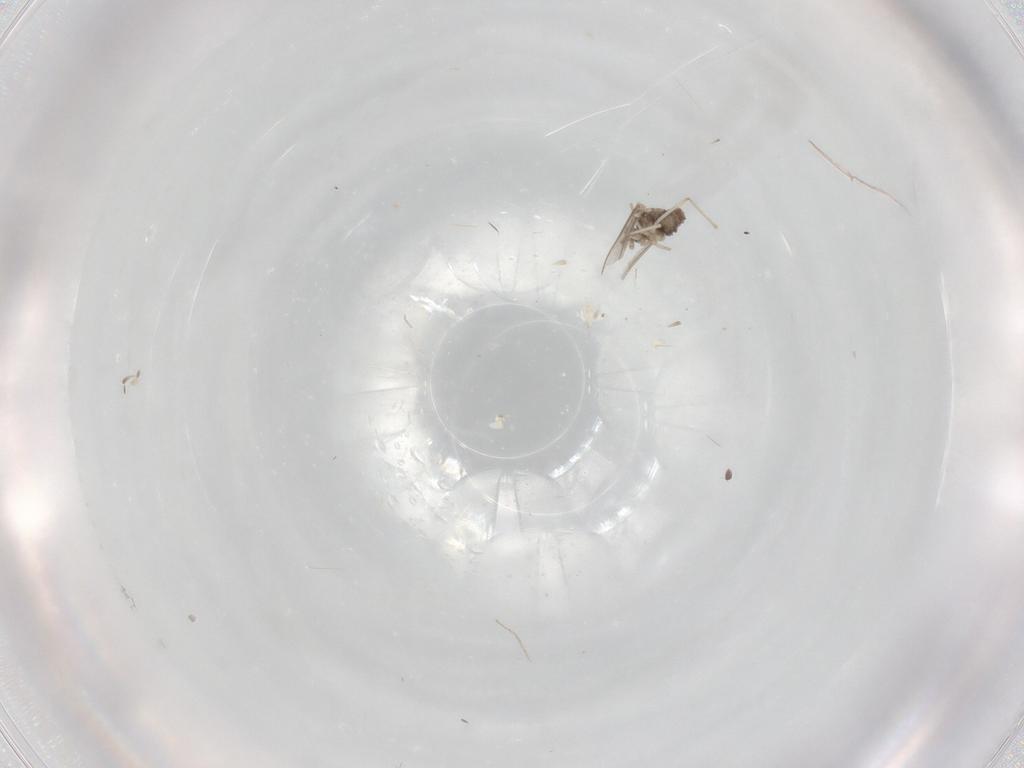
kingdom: Animalia
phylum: Arthropoda
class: Insecta
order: Diptera
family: Cecidomyiidae
